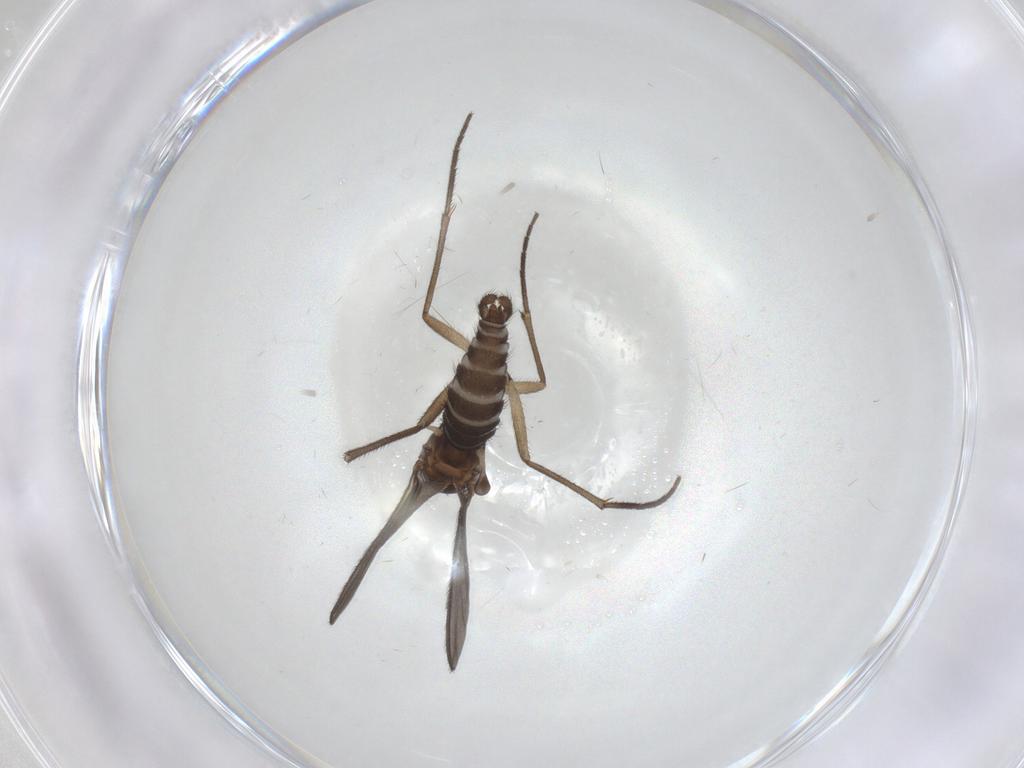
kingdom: Animalia
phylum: Arthropoda
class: Insecta
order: Diptera
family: Sciaridae
